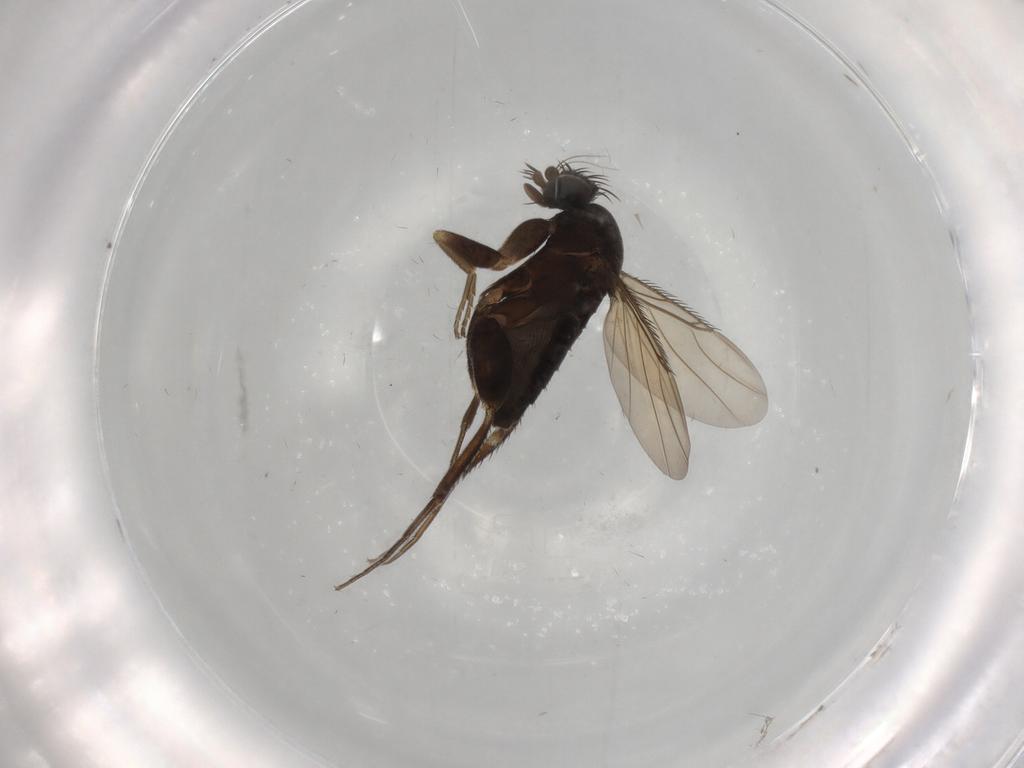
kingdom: Animalia
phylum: Arthropoda
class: Insecta
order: Diptera
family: Phoridae
